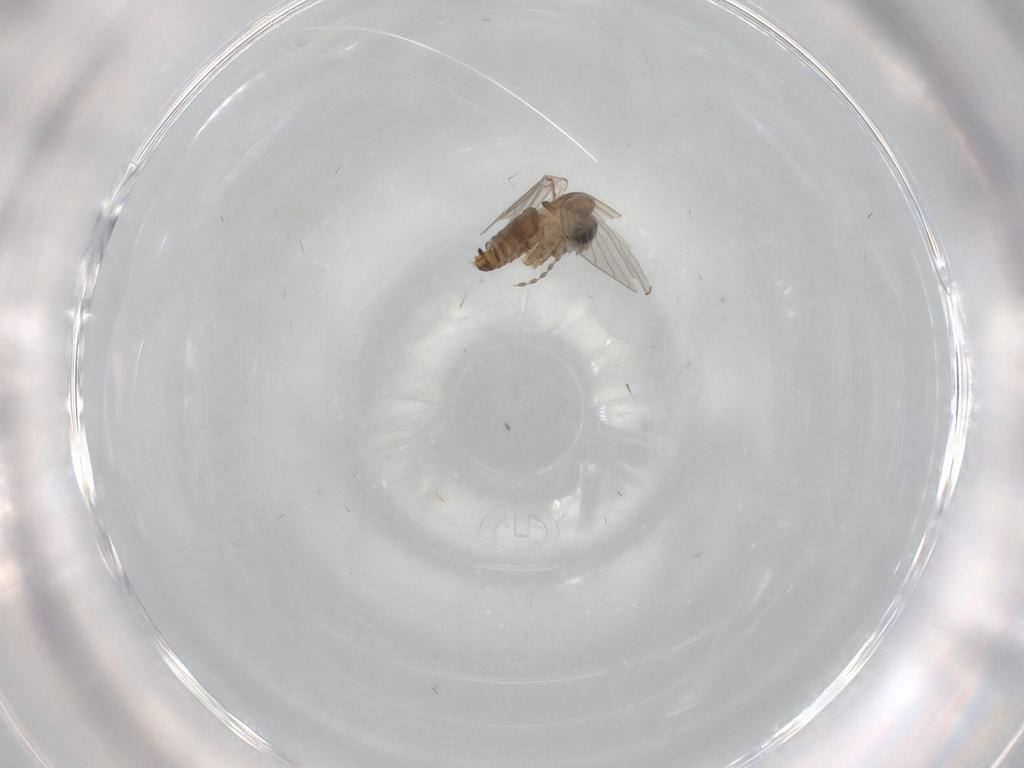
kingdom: Animalia
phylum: Arthropoda
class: Insecta
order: Diptera
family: Psychodidae
